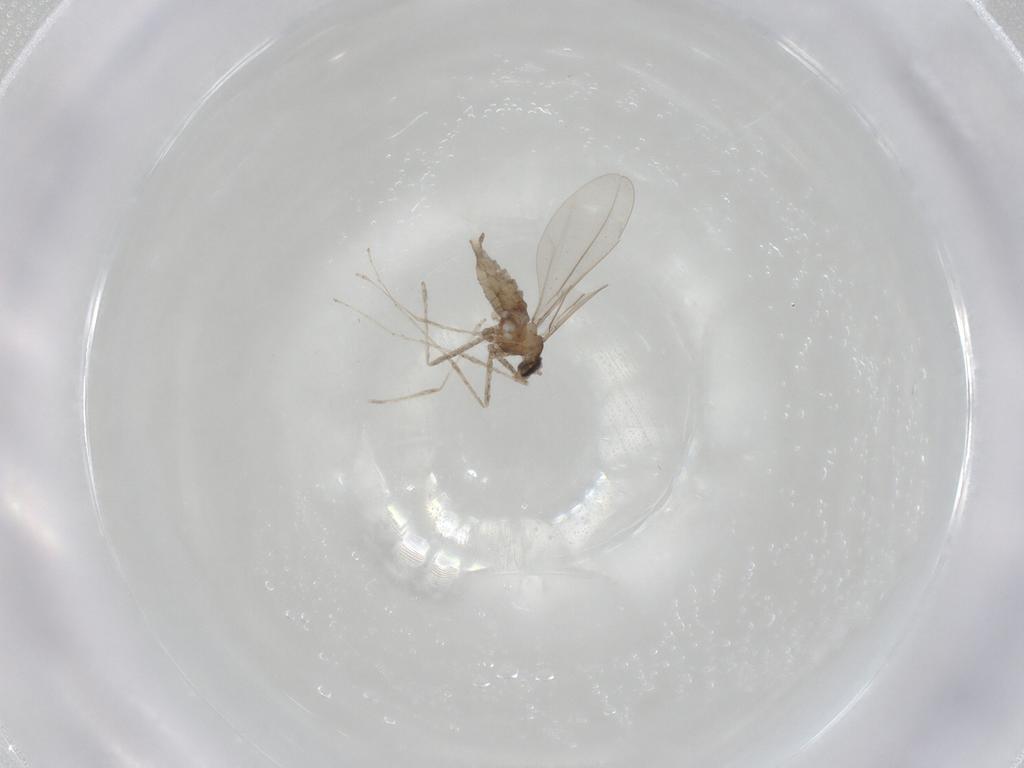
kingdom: Animalia
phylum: Arthropoda
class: Insecta
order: Diptera
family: Cecidomyiidae
